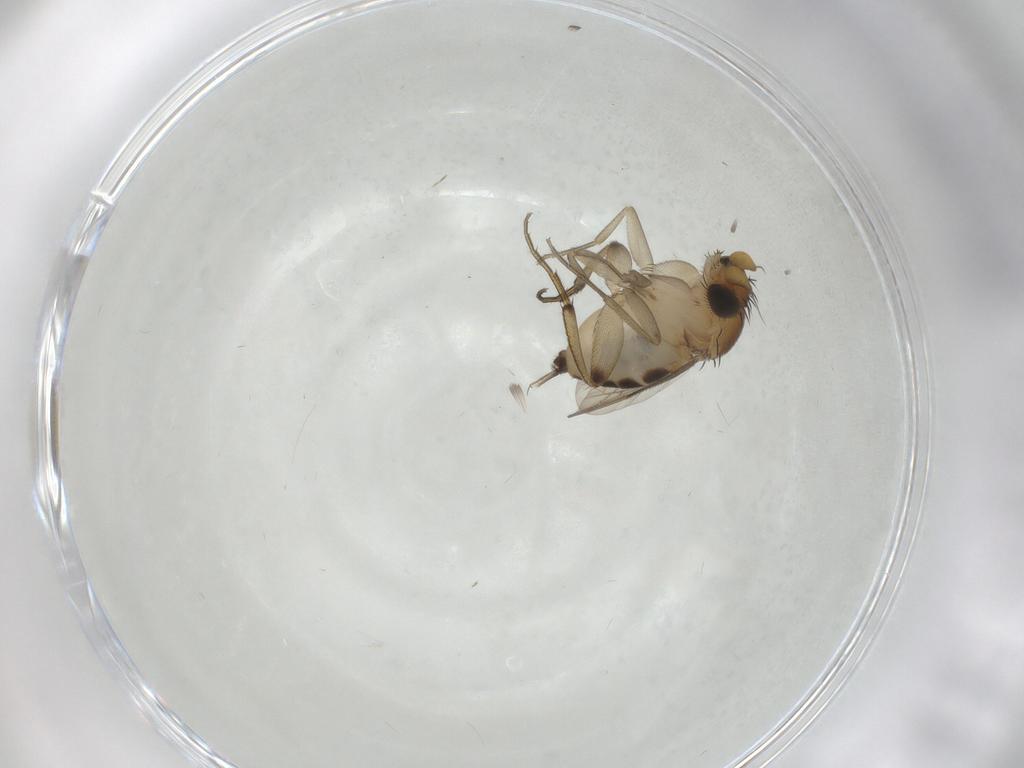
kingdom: Animalia
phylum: Arthropoda
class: Insecta
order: Diptera
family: Phoridae
